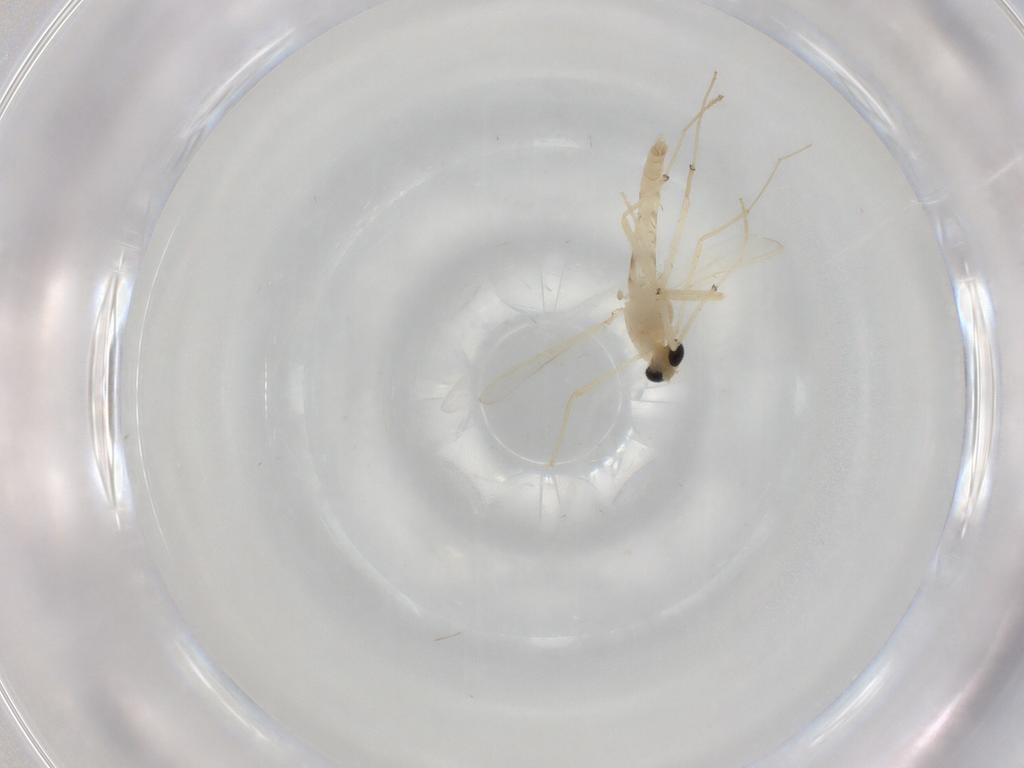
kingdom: Animalia
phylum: Arthropoda
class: Insecta
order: Diptera
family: Chironomidae
